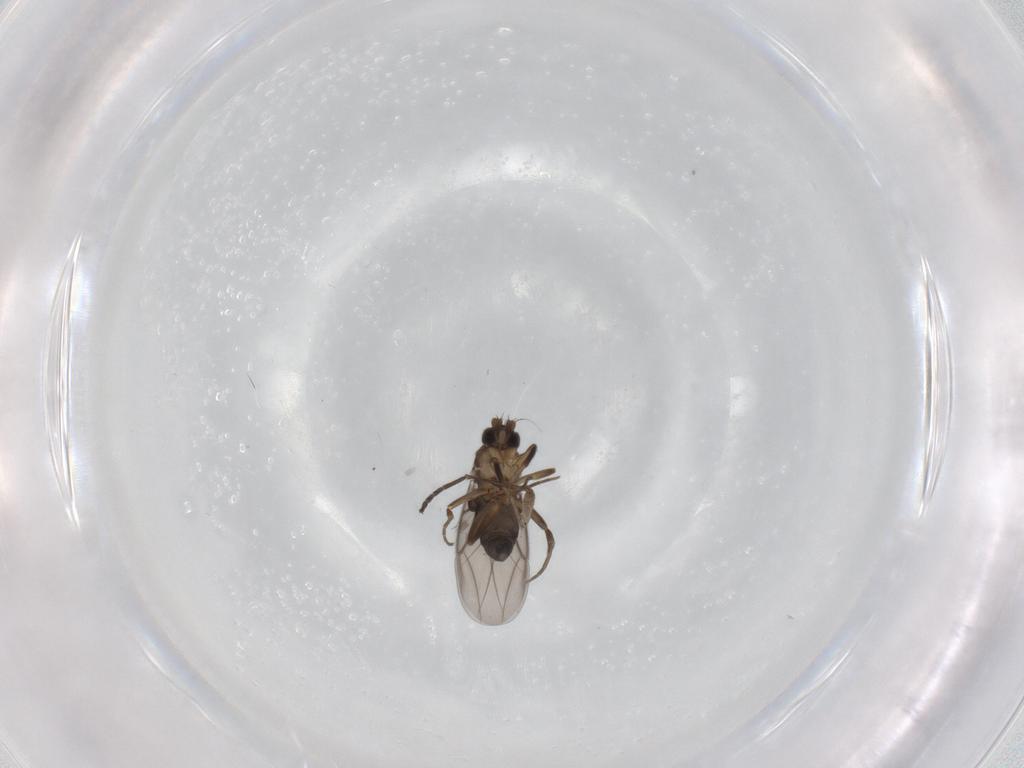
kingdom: Animalia
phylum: Arthropoda
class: Insecta
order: Diptera
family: Phoridae
